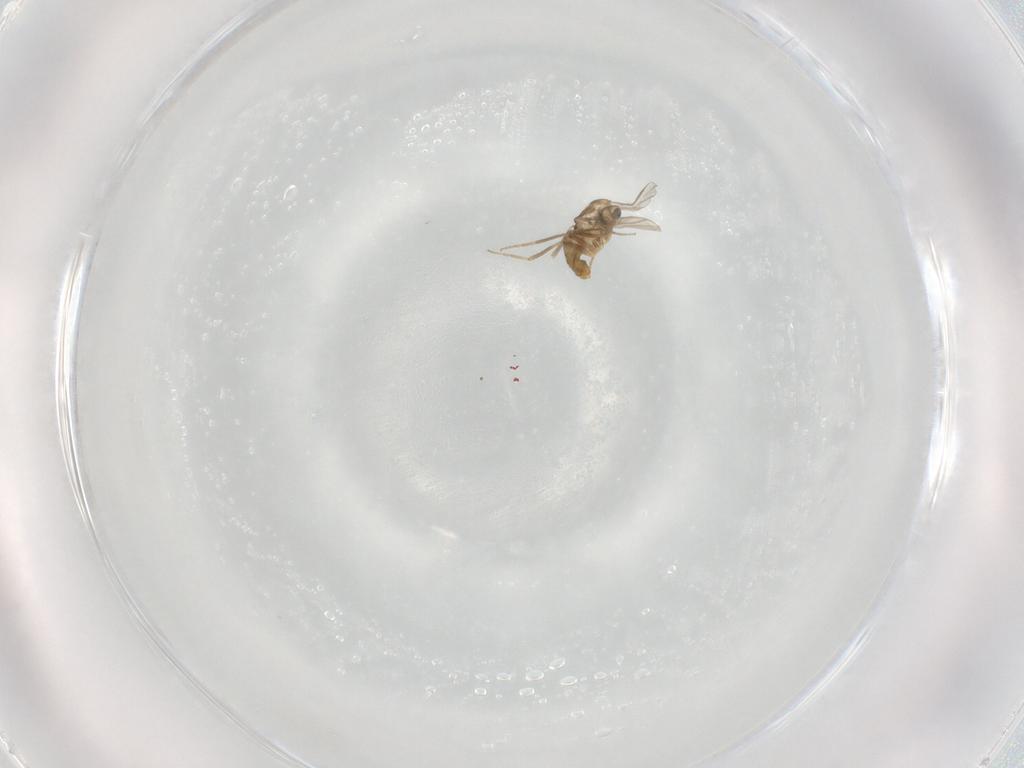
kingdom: Animalia
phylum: Arthropoda
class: Insecta
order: Diptera
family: Chironomidae
